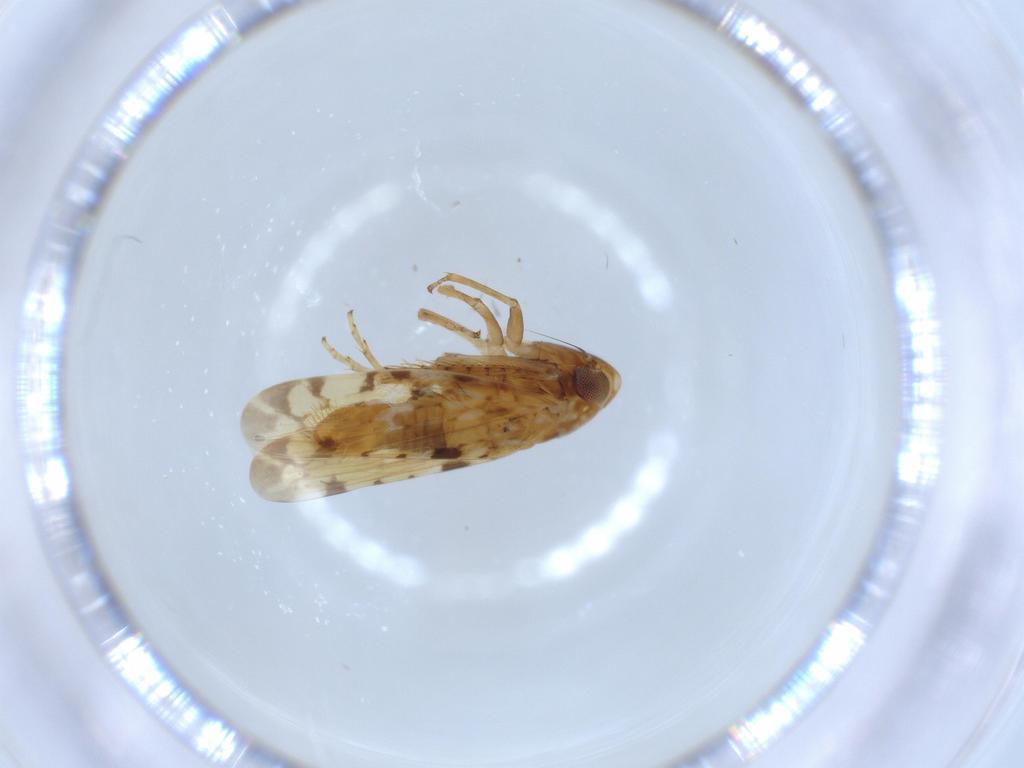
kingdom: Animalia
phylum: Arthropoda
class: Insecta
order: Hemiptera
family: Cicadellidae
